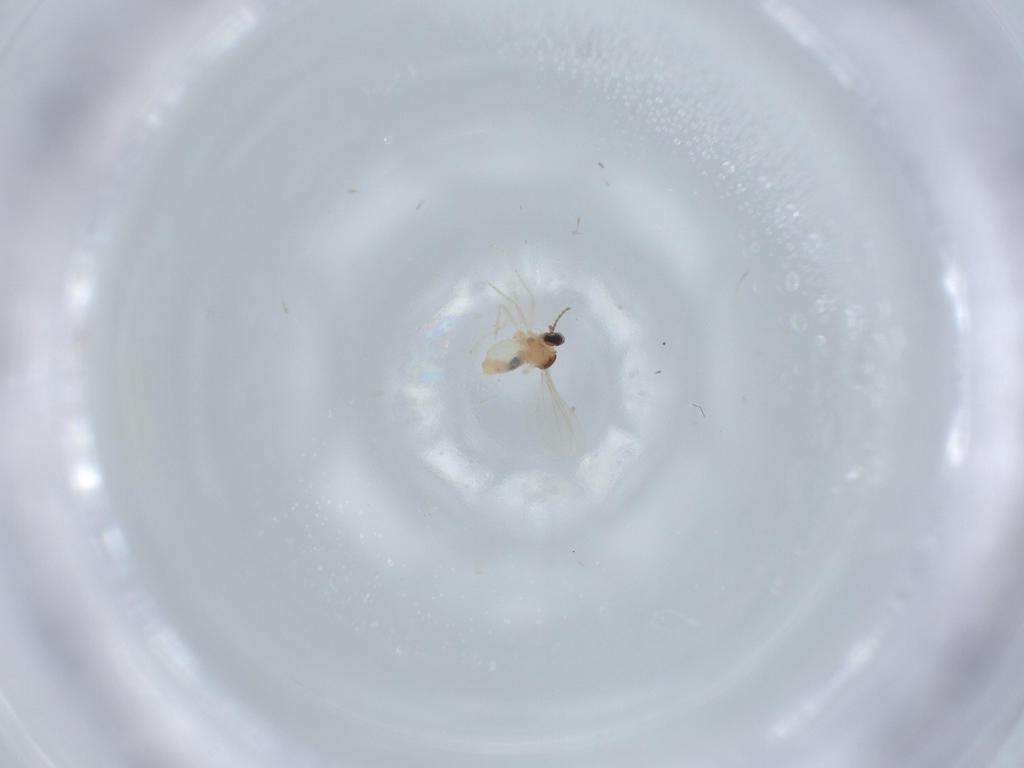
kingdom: Animalia
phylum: Arthropoda
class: Insecta
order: Diptera
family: Cecidomyiidae
